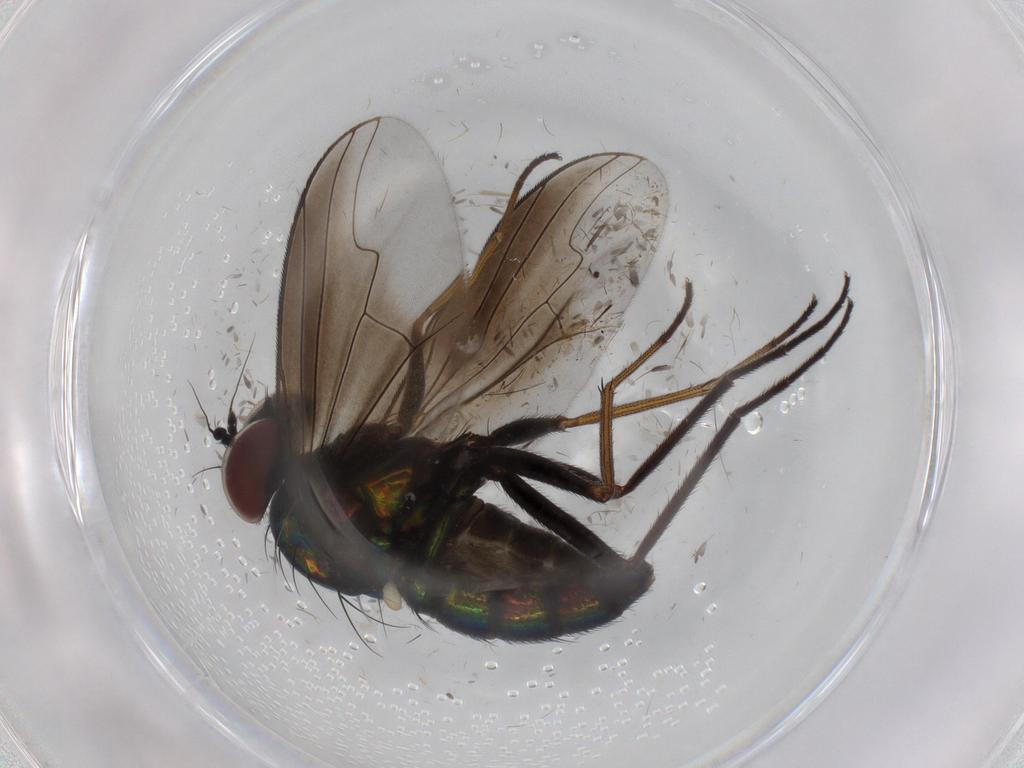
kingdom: Animalia
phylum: Arthropoda
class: Insecta
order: Diptera
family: Dolichopodidae
